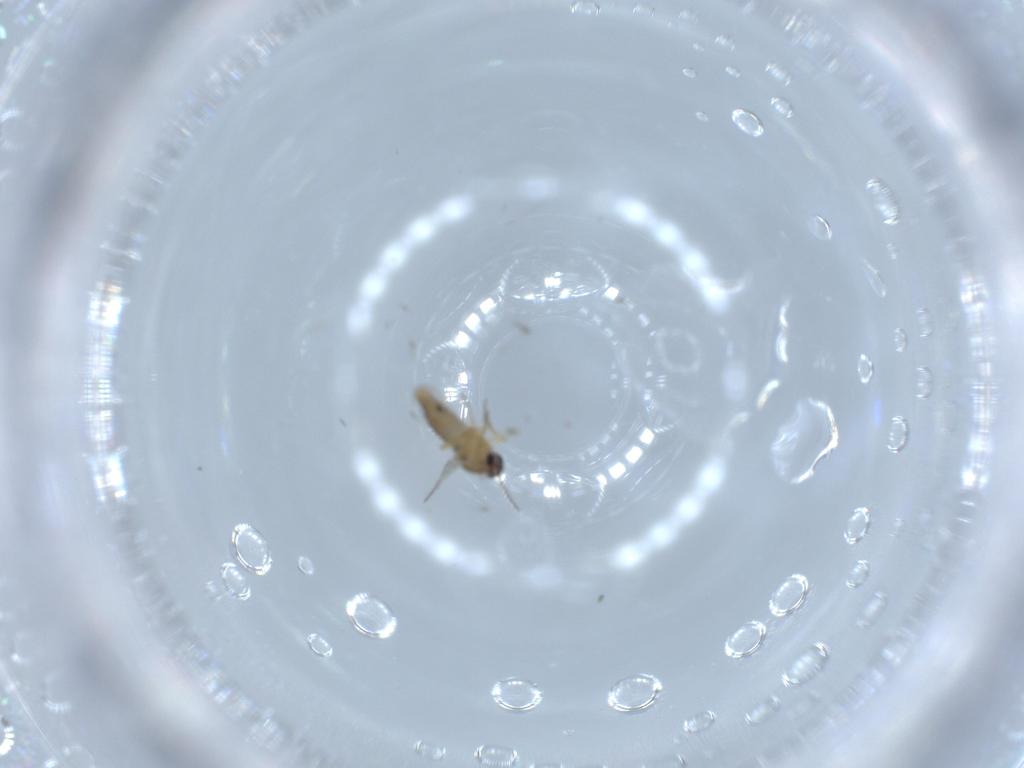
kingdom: Animalia
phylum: Arthropoda
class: Insecta
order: Diptera
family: Ceratopogonidae
